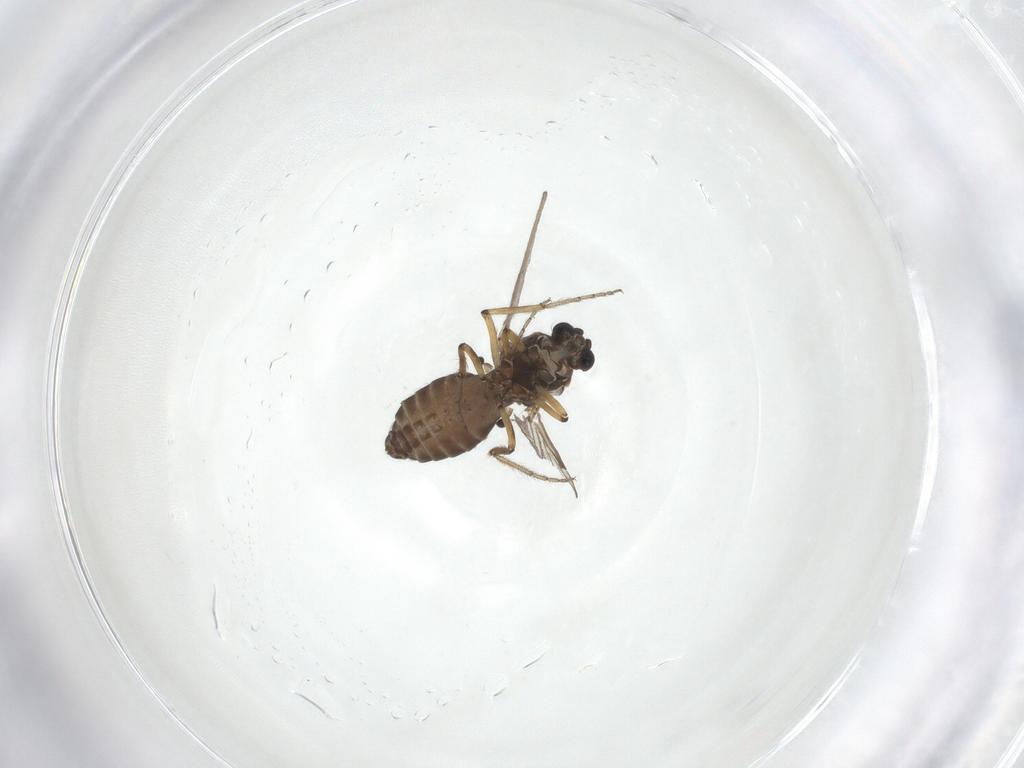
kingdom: Animalia
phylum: Arthropoda
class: Insecta
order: Diptera
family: Ceratopogonidae
